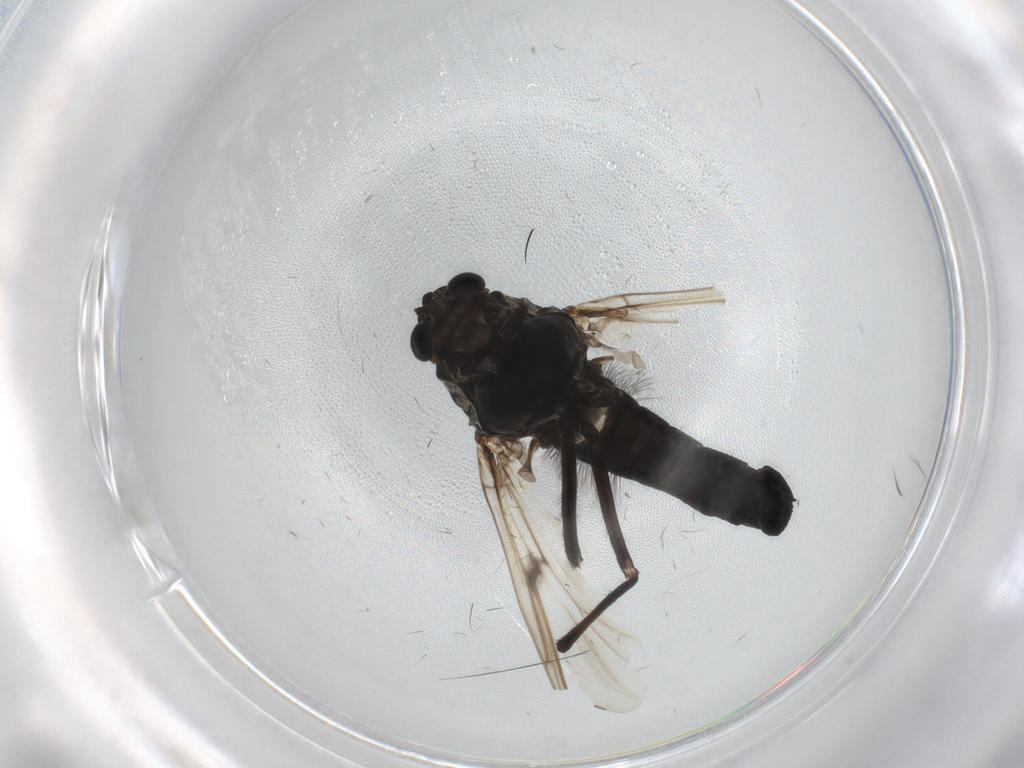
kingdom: Animalia
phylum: Arthropoda
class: Insecta
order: Diptera
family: Chironomidae
